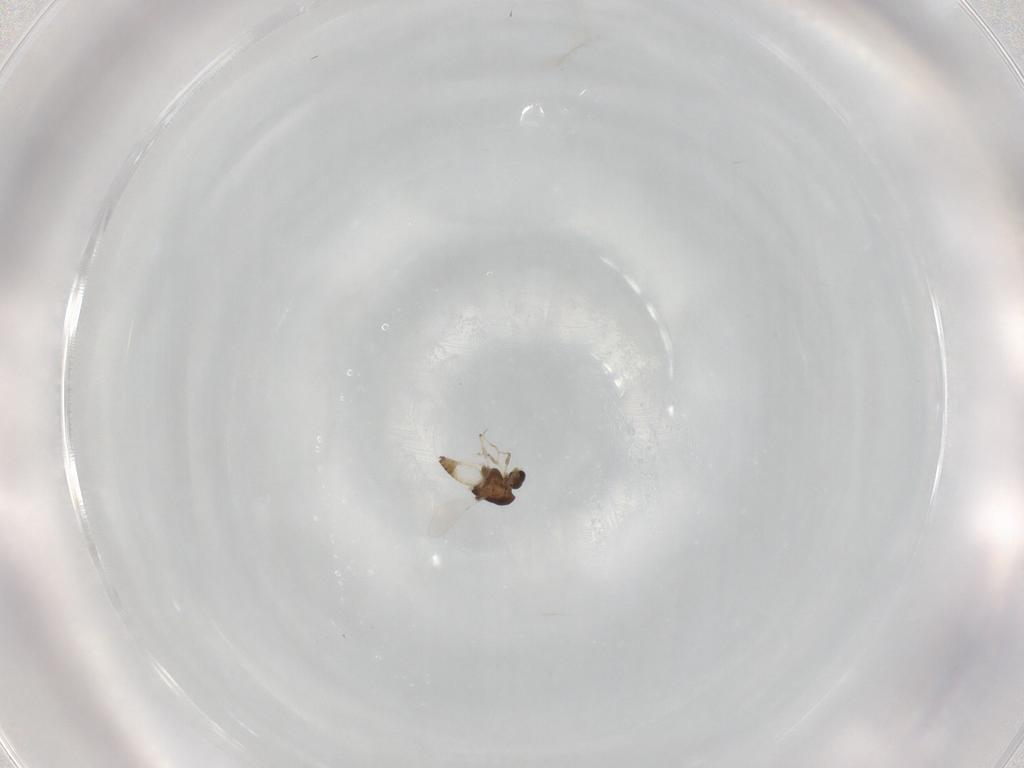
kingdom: Animalia
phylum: Arthropoda
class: Insecta
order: Diptera
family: Chironomidae
